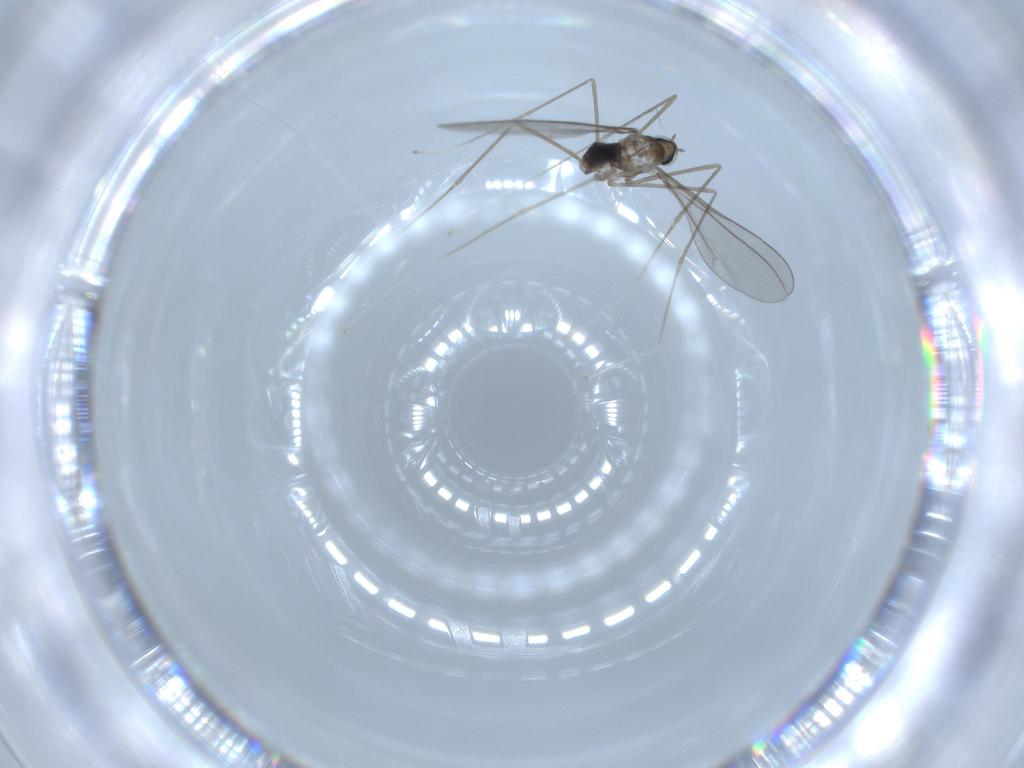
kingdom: Animalia
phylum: Arthropoda
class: Insecta
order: Diptera
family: Cecidomyiidae
